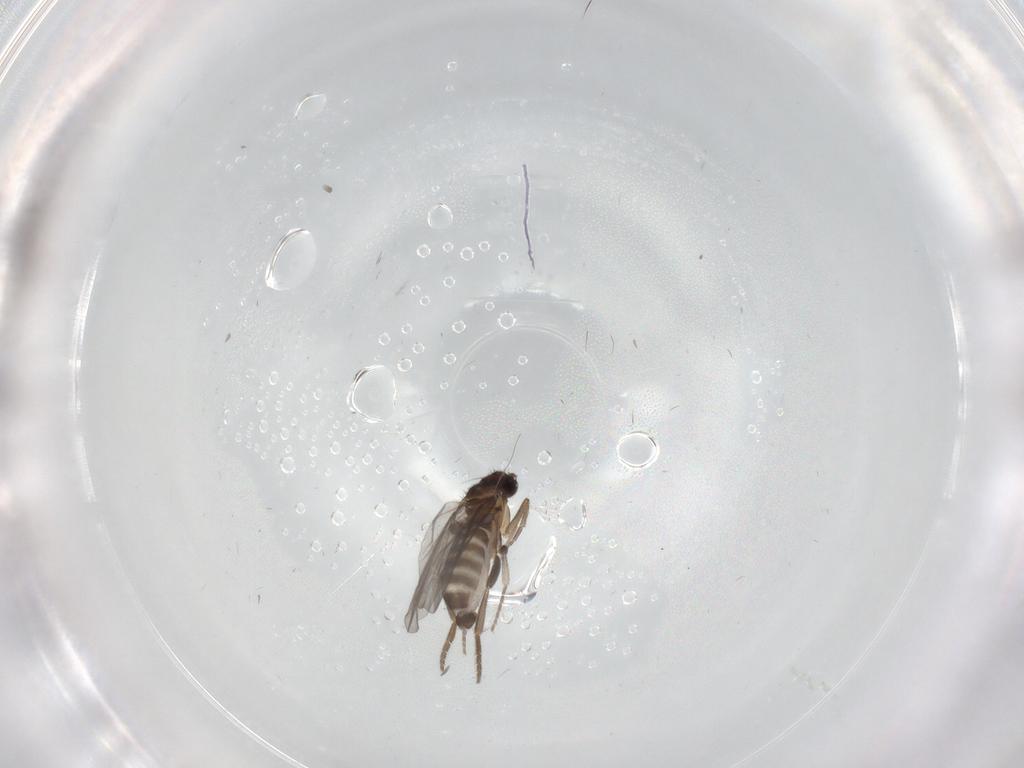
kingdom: Animalia
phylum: Arthropoda
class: Insecta
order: Diptera
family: Phoridae
